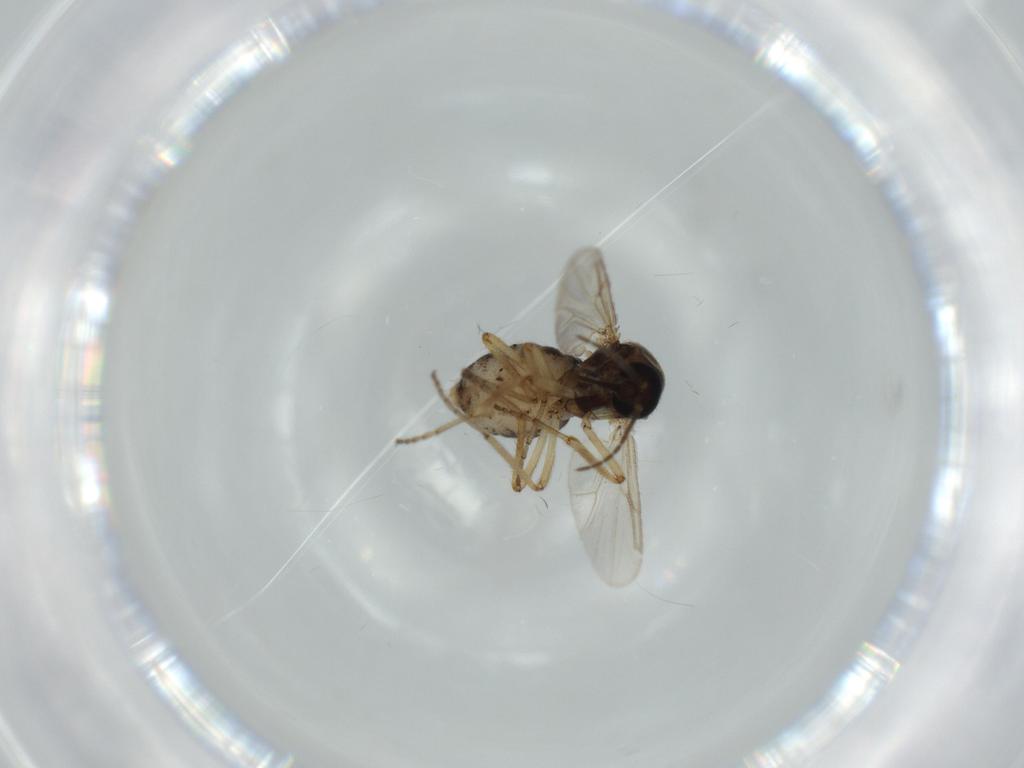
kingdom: Animalia
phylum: Arthropoda
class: Insecta
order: Diptera
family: Ceratopogonidae
